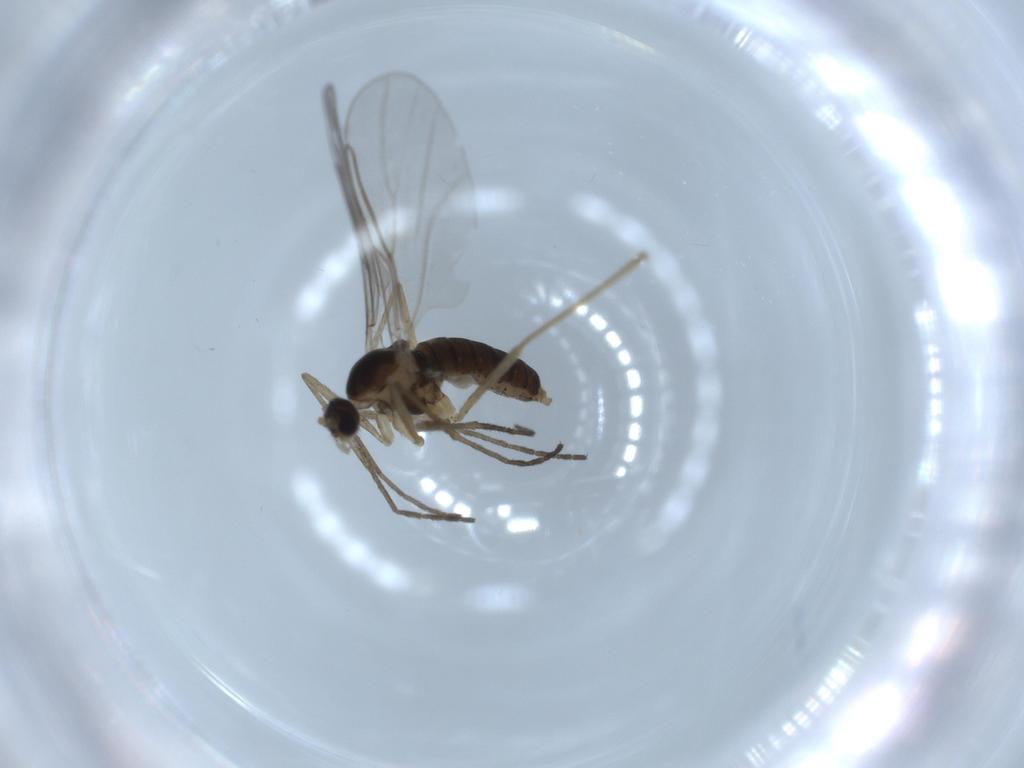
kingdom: Animalia
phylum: Arthropoda
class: Insecta
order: Diptera
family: Cecidomyiidae
